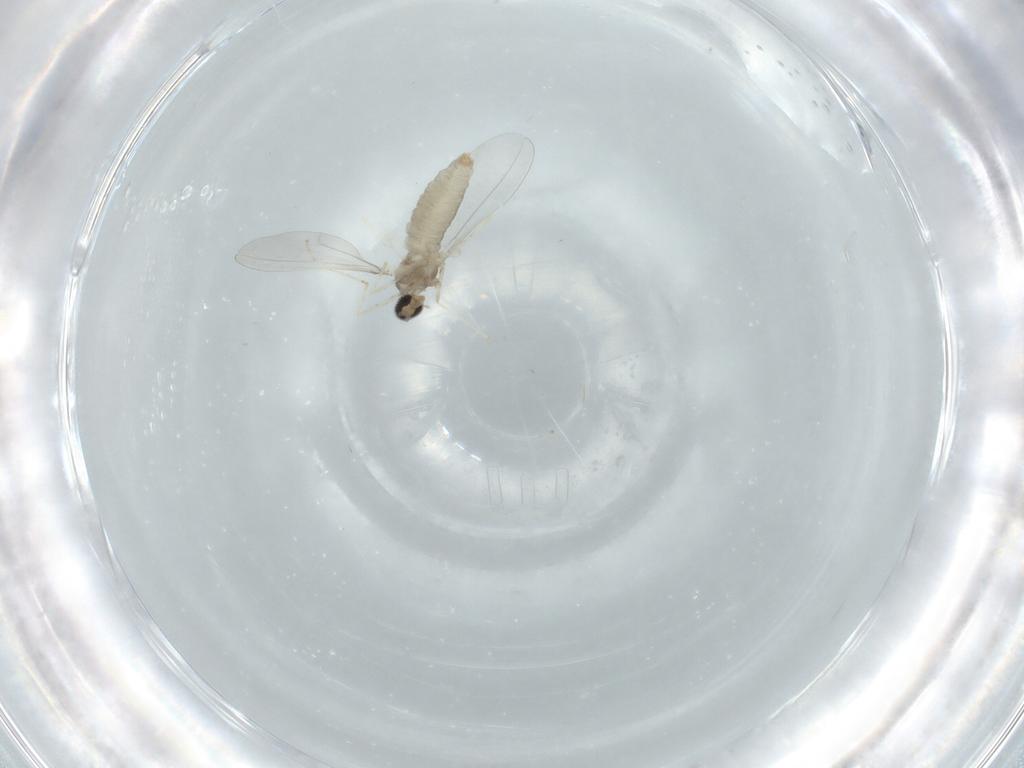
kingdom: Animalia
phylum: Arthropoda
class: Insecta
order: Diptera
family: Cecidomyiidae
